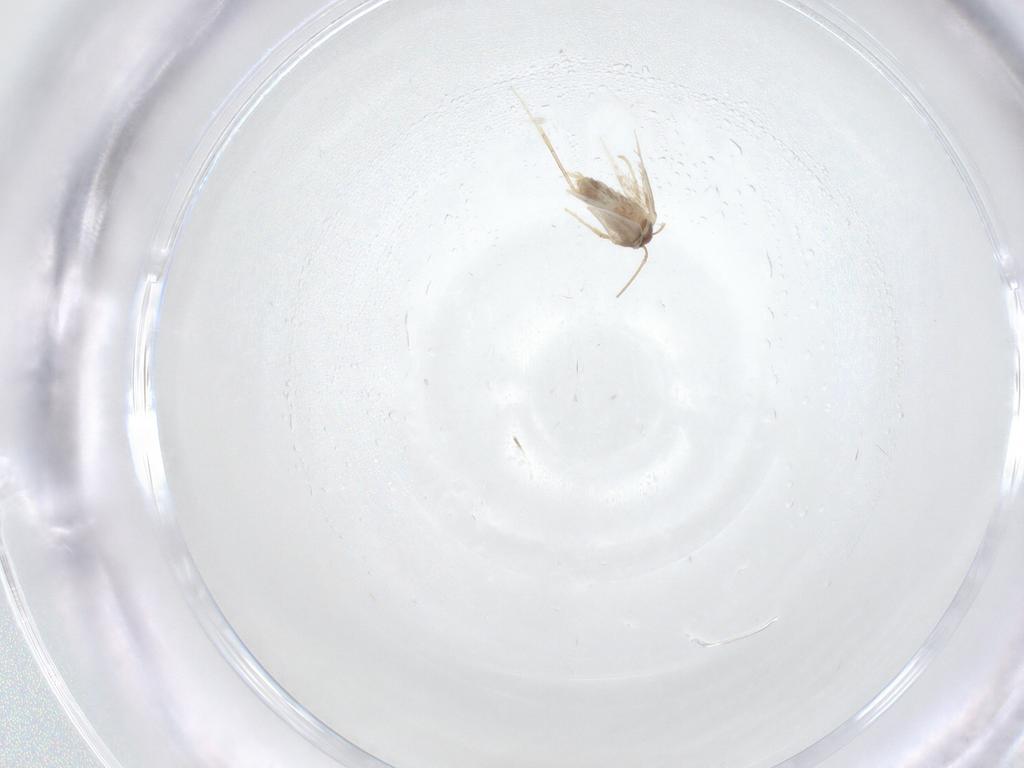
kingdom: Animalia
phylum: Arthropoda
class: Insecta
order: Lepidoptera
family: Nepticulidae
